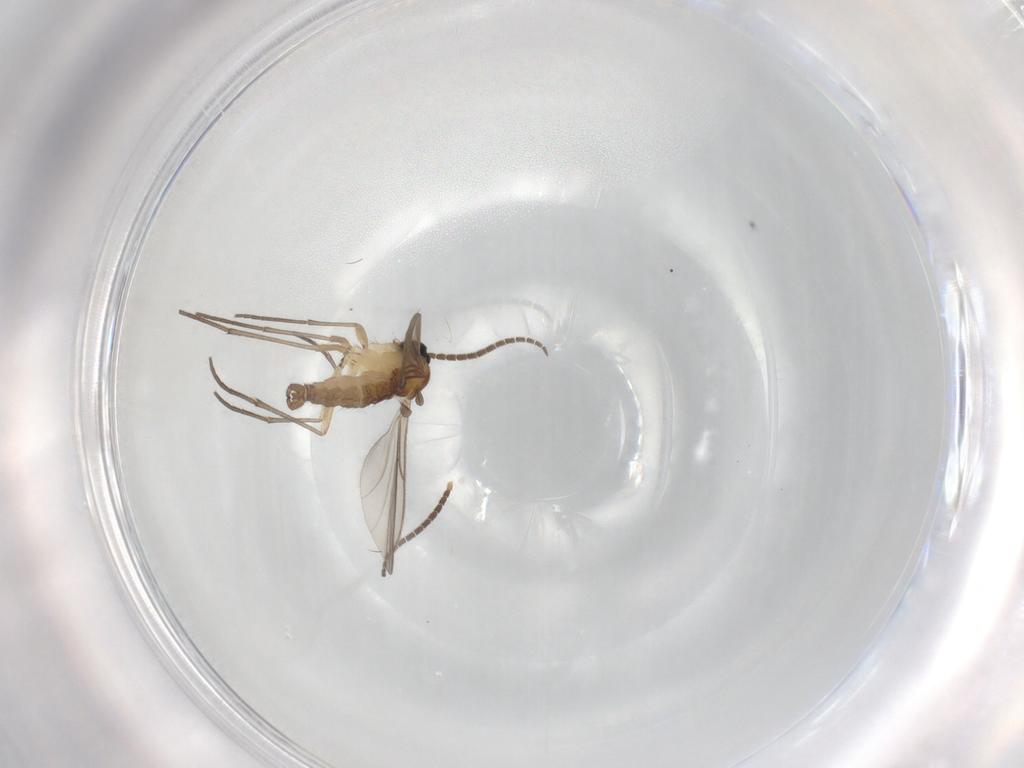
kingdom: Animalia
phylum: Arthropoda
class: Insecta
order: Diptera
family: Sciaridae
